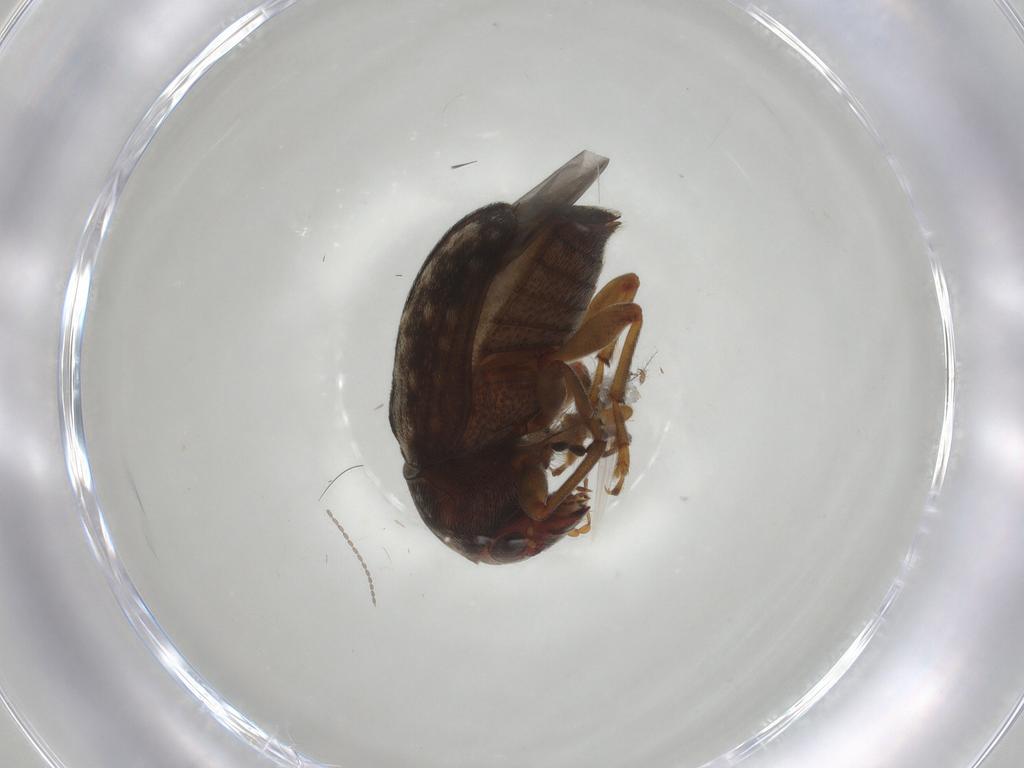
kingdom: Animalia
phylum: Arthropoda
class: Insecta
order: Coleoptera
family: Anthribidae
